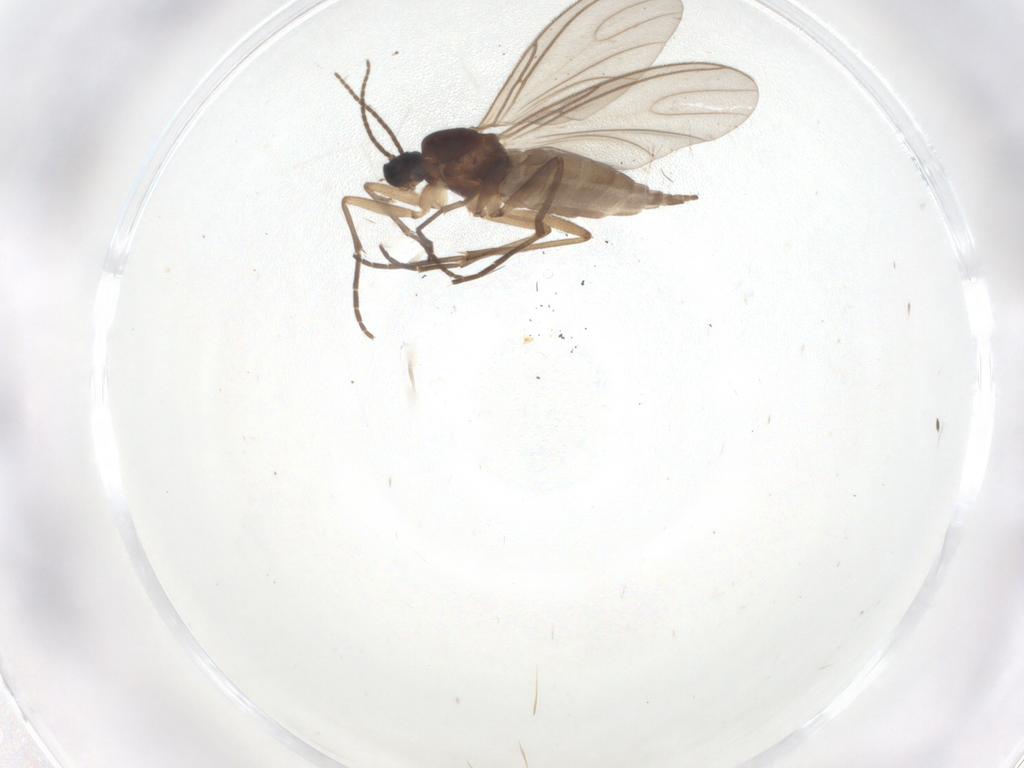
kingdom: Animalia
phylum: Arthropoda
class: Insecta
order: Diptera
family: Sciaridae
